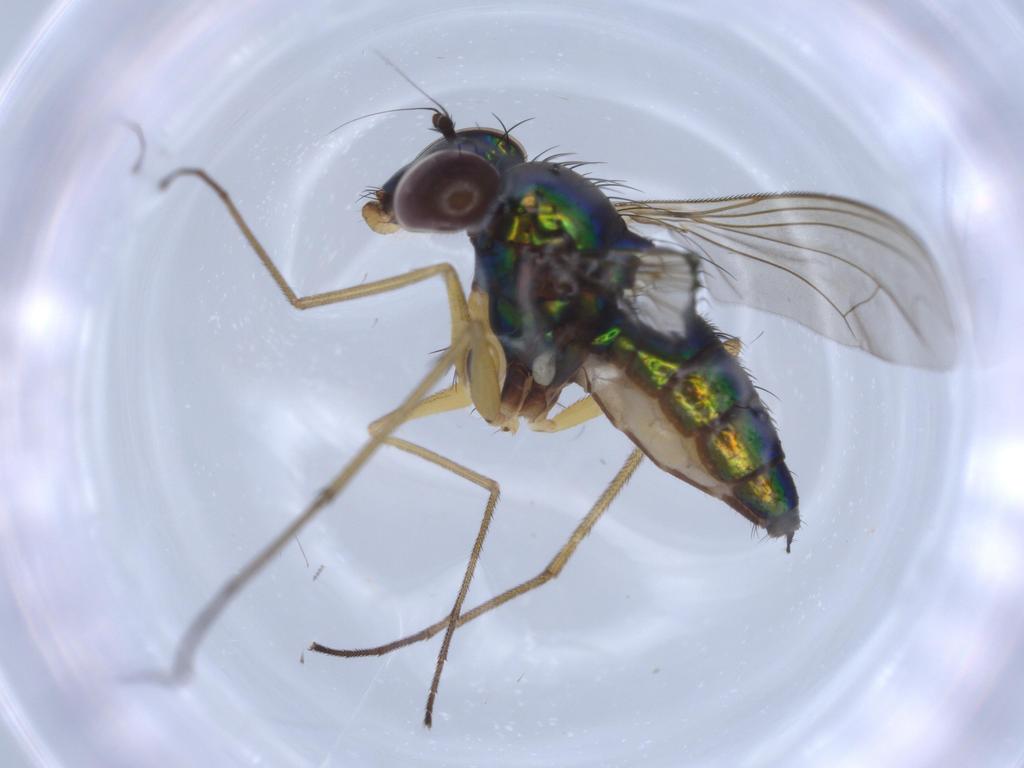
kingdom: Animalia
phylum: Arthropoda
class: Insecta
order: Diptera
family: Dolichopodidae
